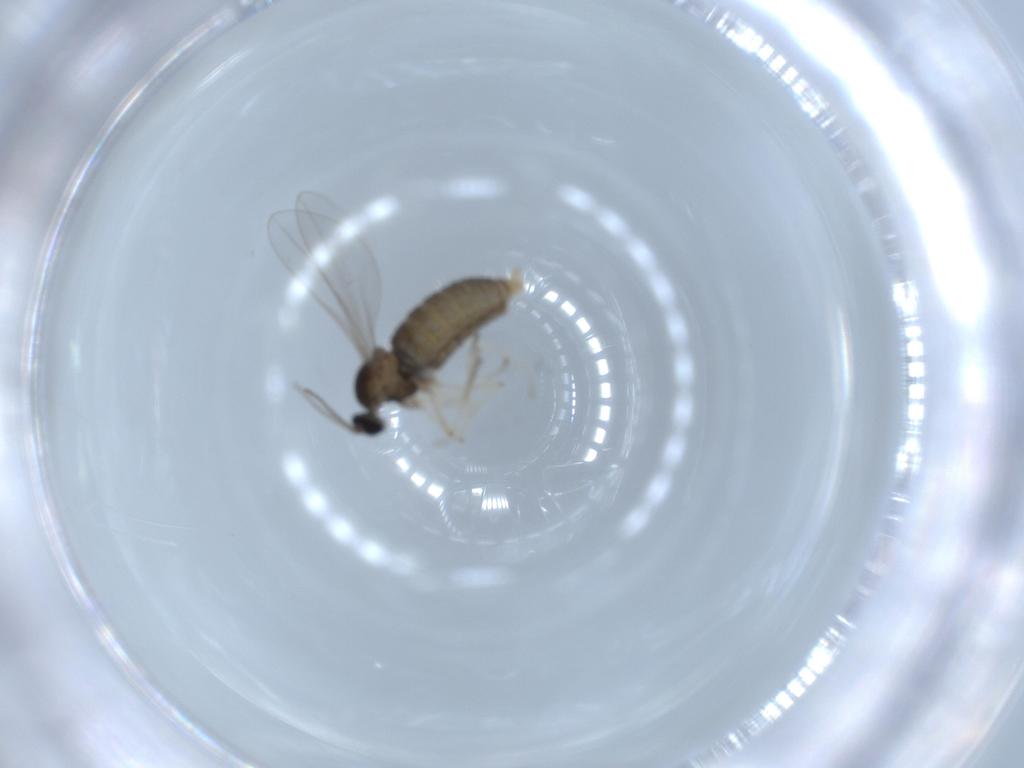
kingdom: Animalia
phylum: Arthropoda
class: Insecta
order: Diptera
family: Cecidomyiidae
